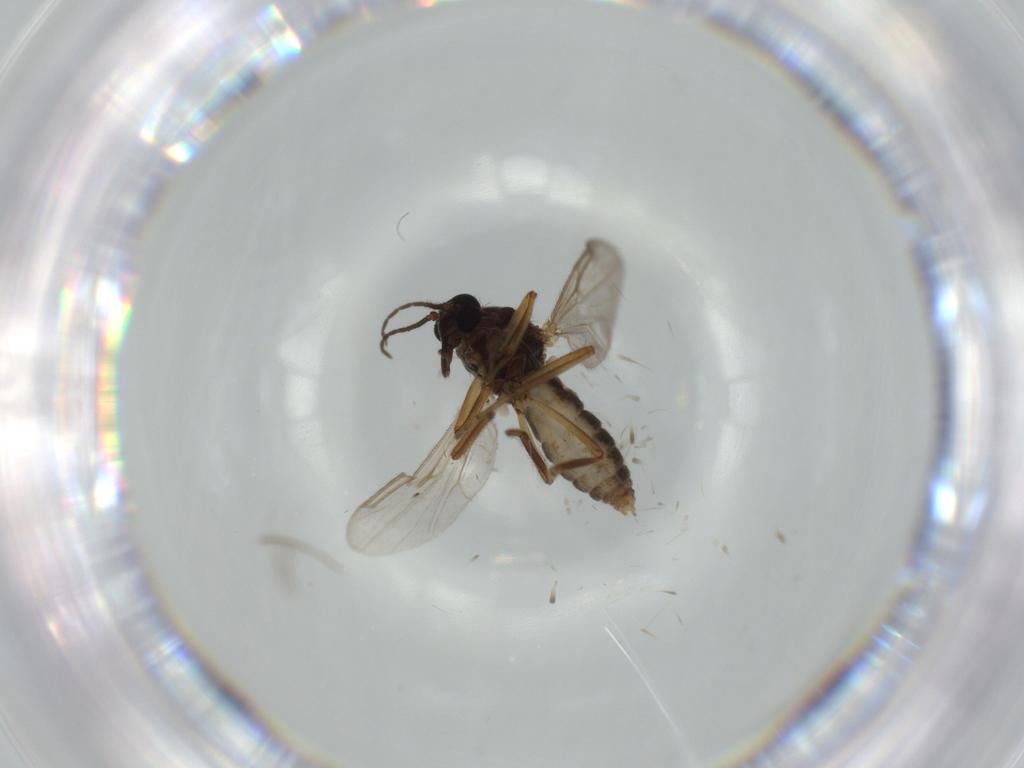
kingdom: Animalia
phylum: Arthropoda
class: Insecta
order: Diptera
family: Ceratopogonidae
